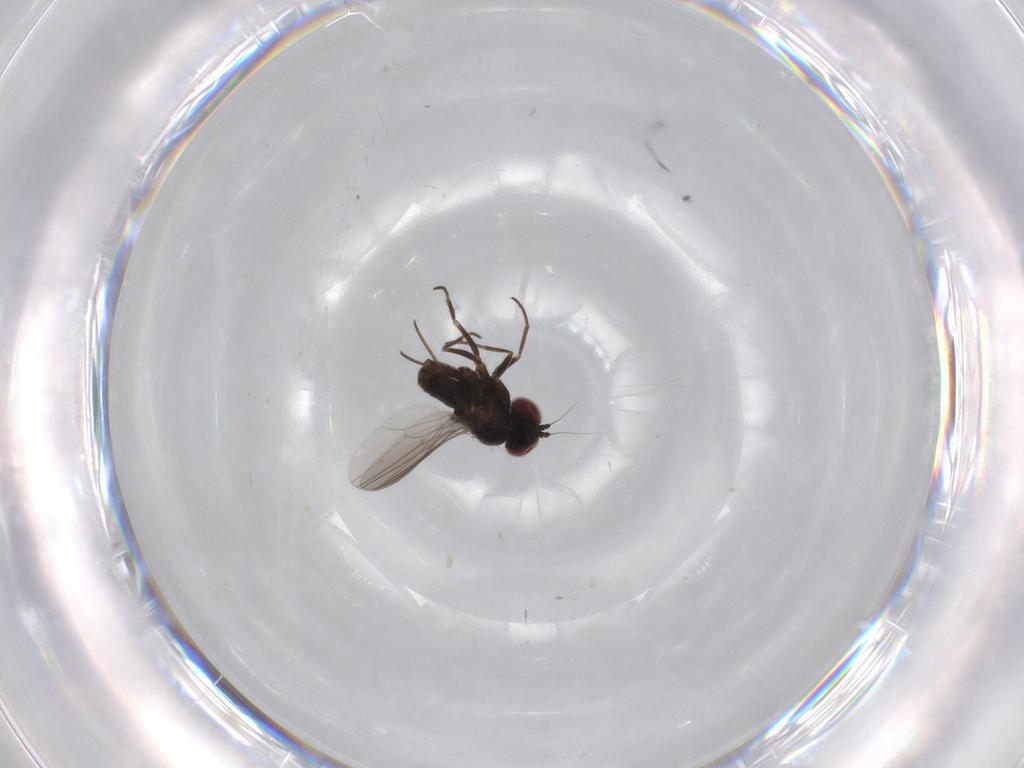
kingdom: Animalia
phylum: Arthropoda
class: Insecta
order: Diptera
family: Dolichopodidae
